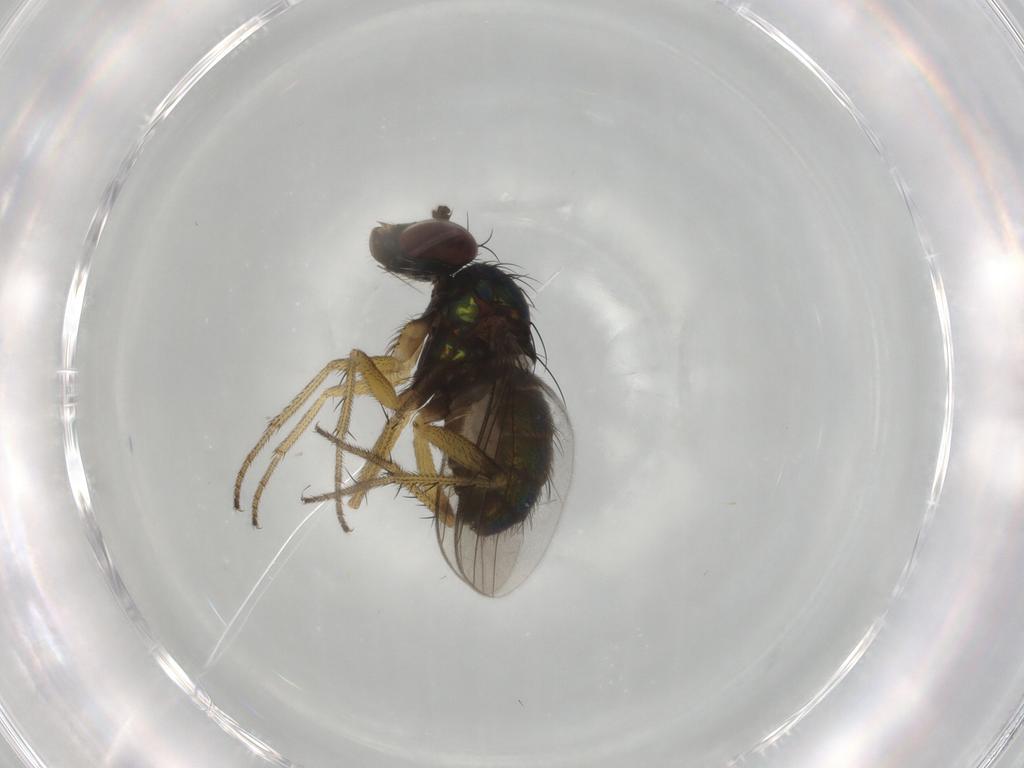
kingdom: Animalia
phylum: Arthropoda
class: Insecta
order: Diptera
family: Dolichopodidae
